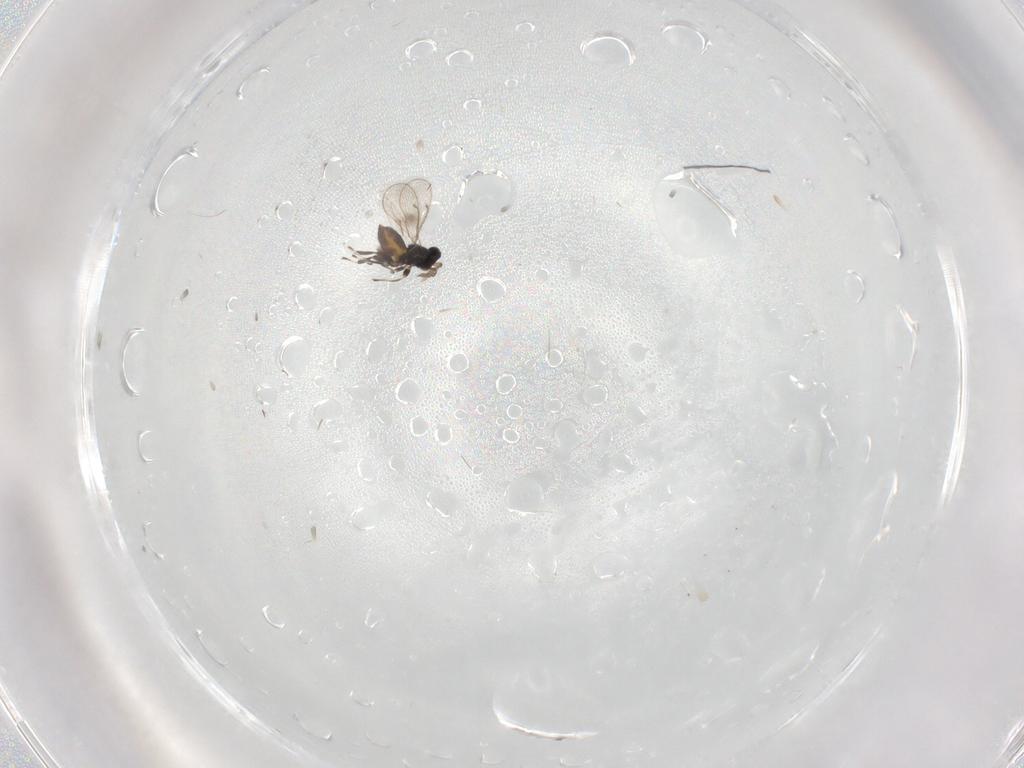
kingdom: Animalia
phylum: Arthropoda
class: Insecta
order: Hymenoptera
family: Eulophidae
